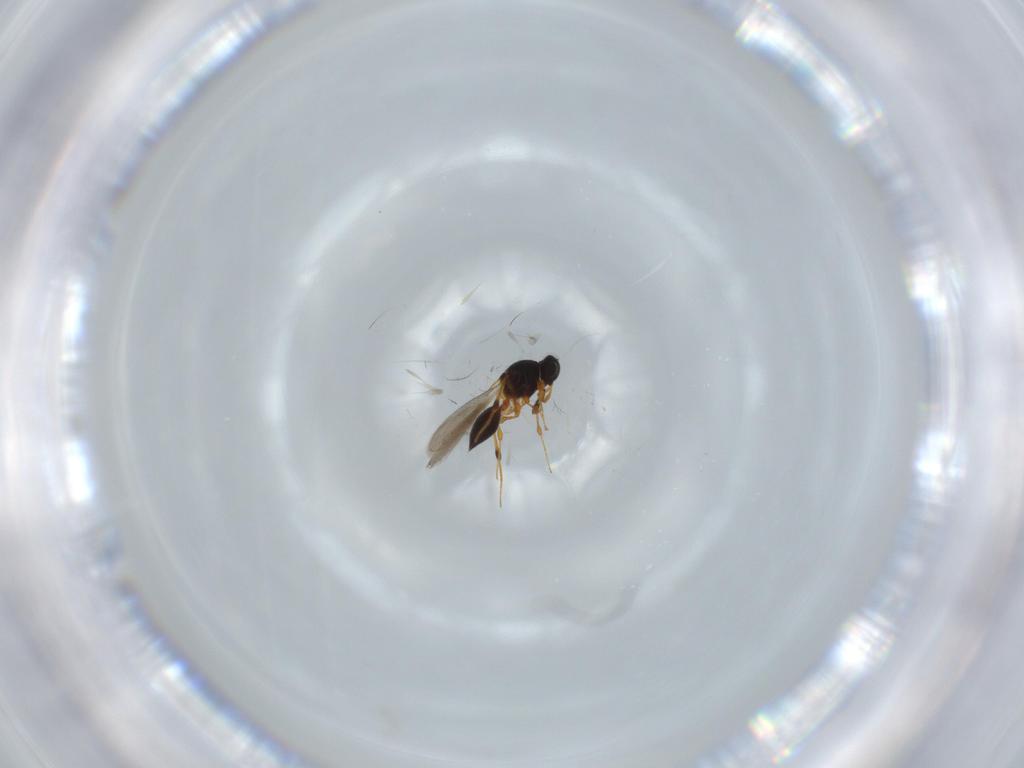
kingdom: Animalia
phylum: Arthropoda
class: Insecta
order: Hymenoptera
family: Platygastridae
